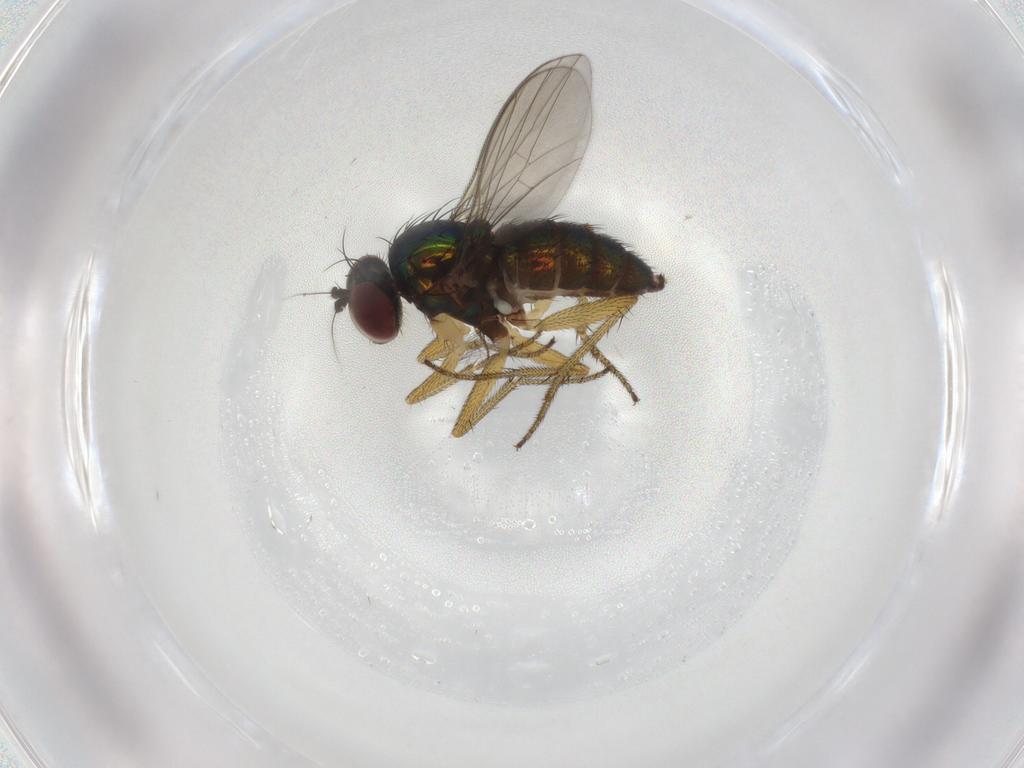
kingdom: Animalia
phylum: Arthropoda
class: Insecta
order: Diptera
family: Dolichopodidae
